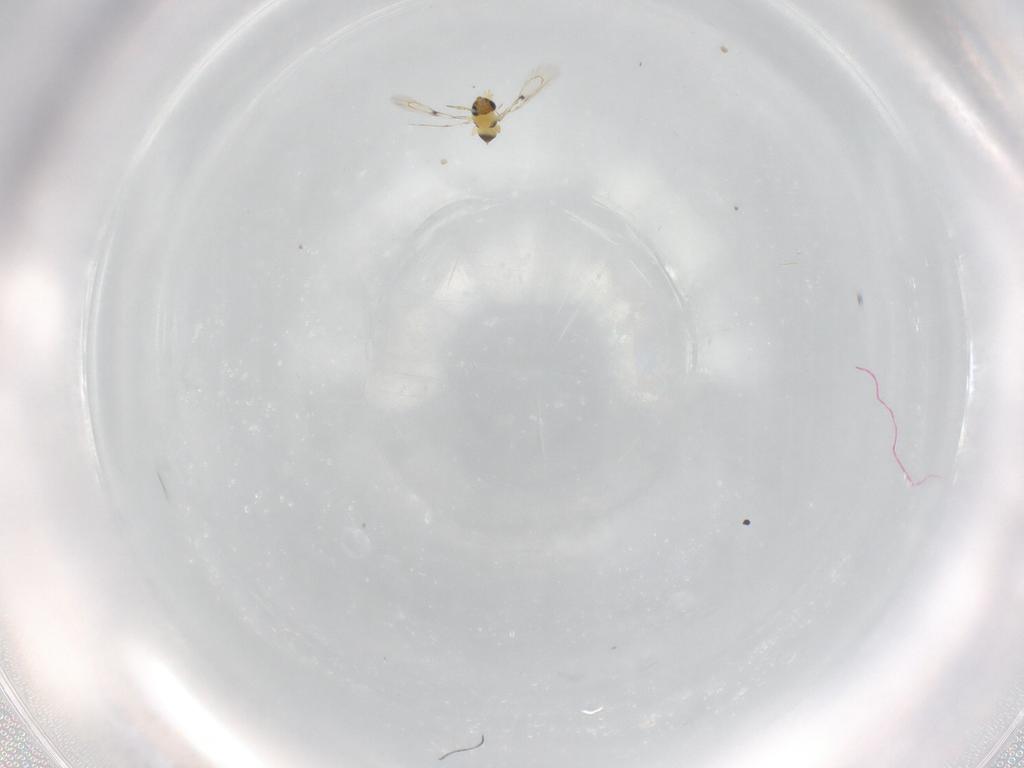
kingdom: Animalia
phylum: Arthropoda
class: Insecta
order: Hymenoptera
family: Trichogrammatidae
